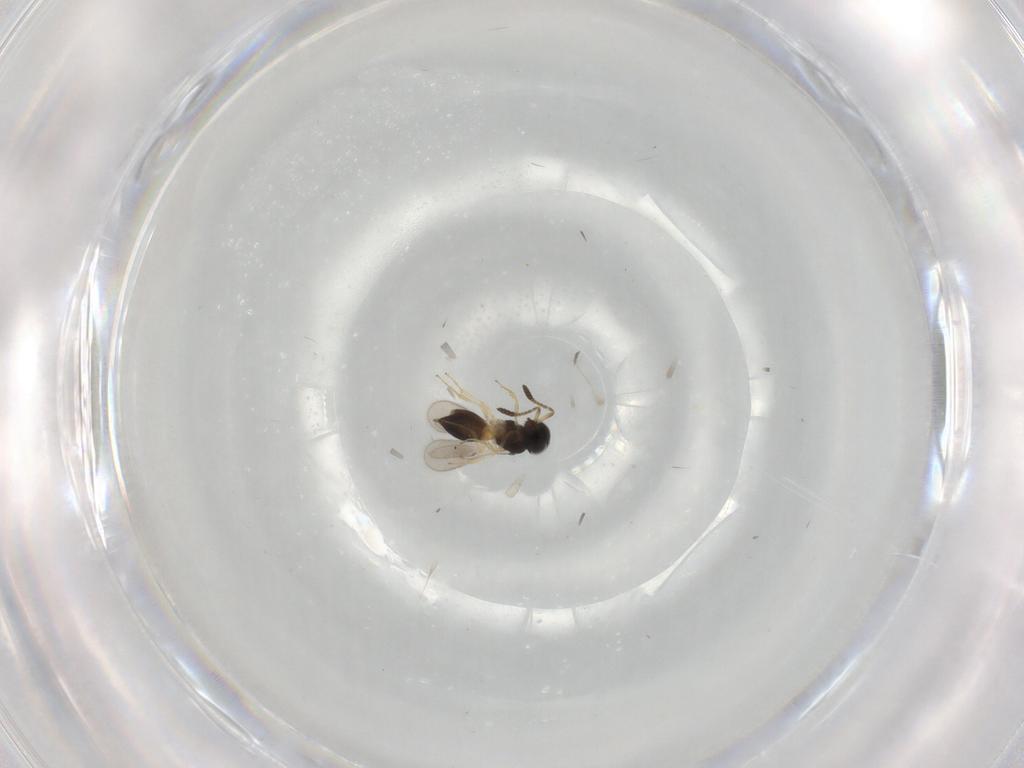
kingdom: Animalia
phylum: Arthropoda
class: Insecta
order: Hymenoptera
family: Scelionidae
